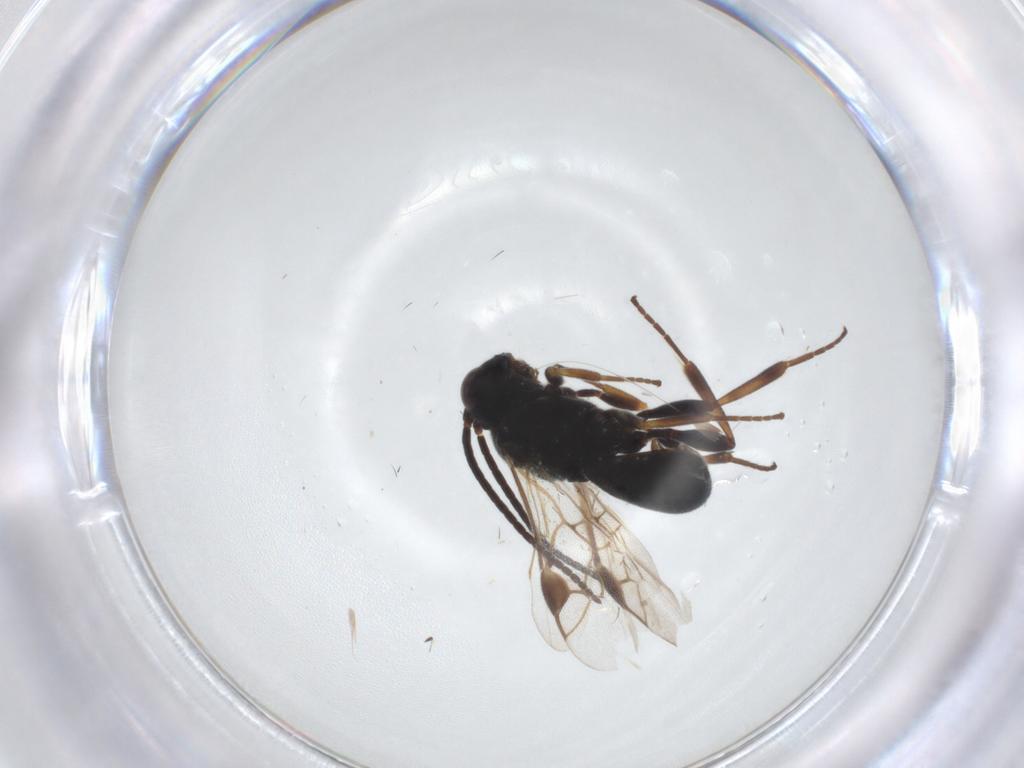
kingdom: Animalia
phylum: Arthropoda
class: Insecta
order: Hymenoptera
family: Braconidae
